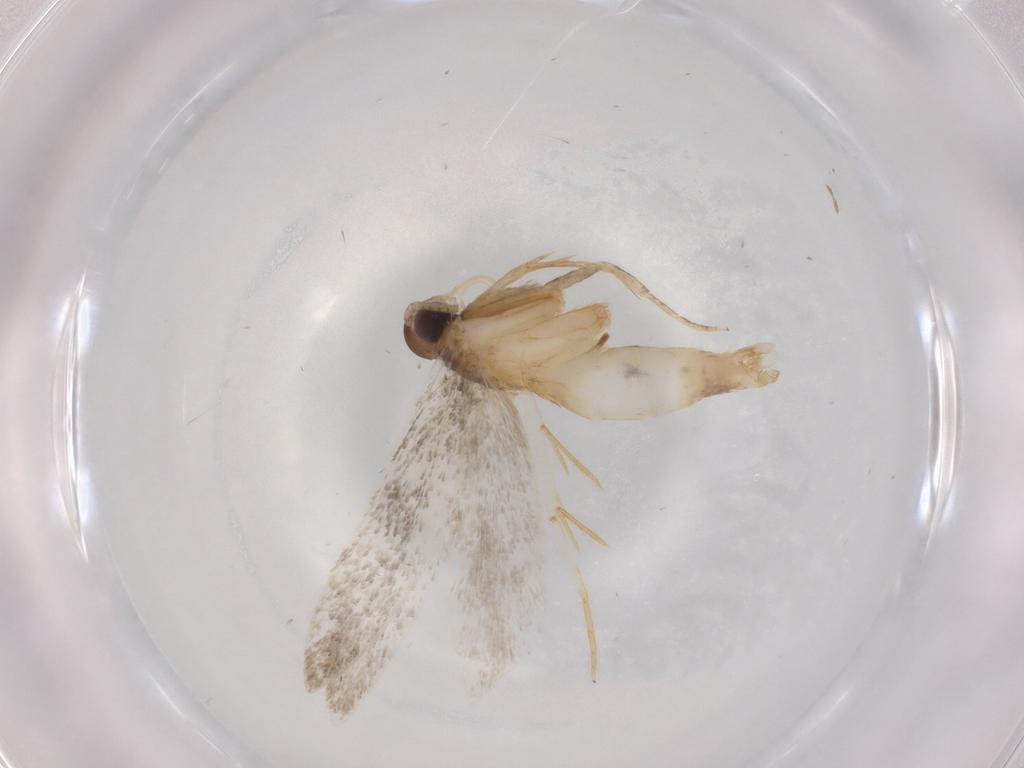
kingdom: Animalia
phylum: Arthropoda
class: Insecta
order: Lepidoptera
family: Autostichidae
